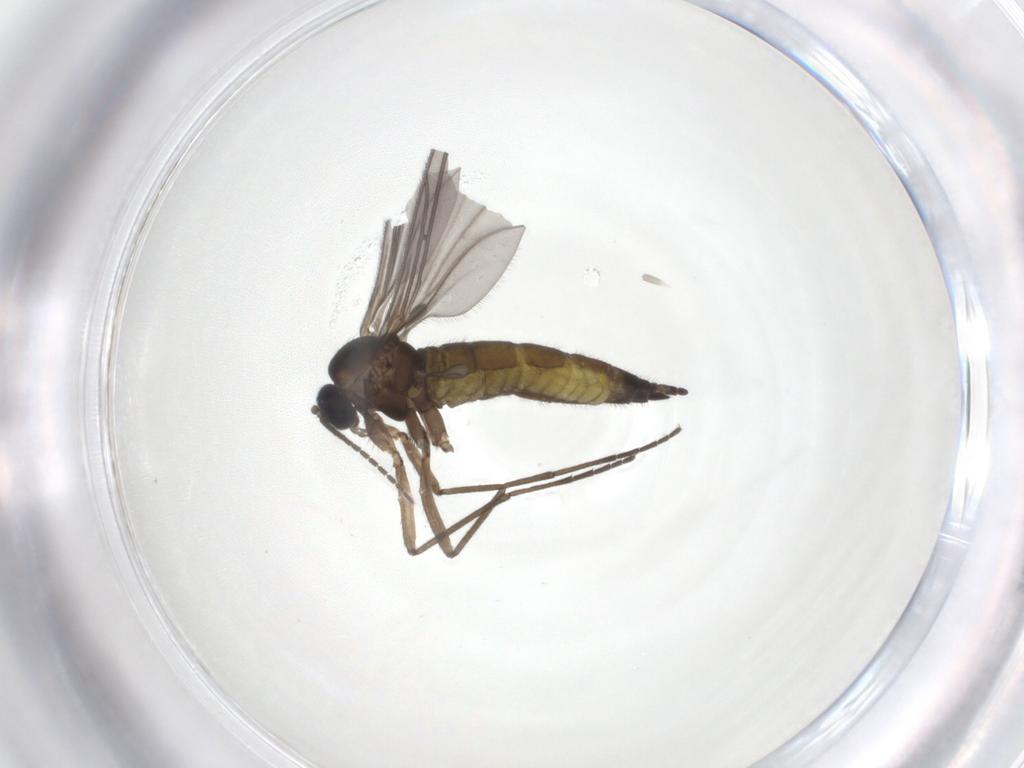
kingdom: Animalia
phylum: Arthropoda
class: Insecta
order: Diptera
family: Sciaridae
